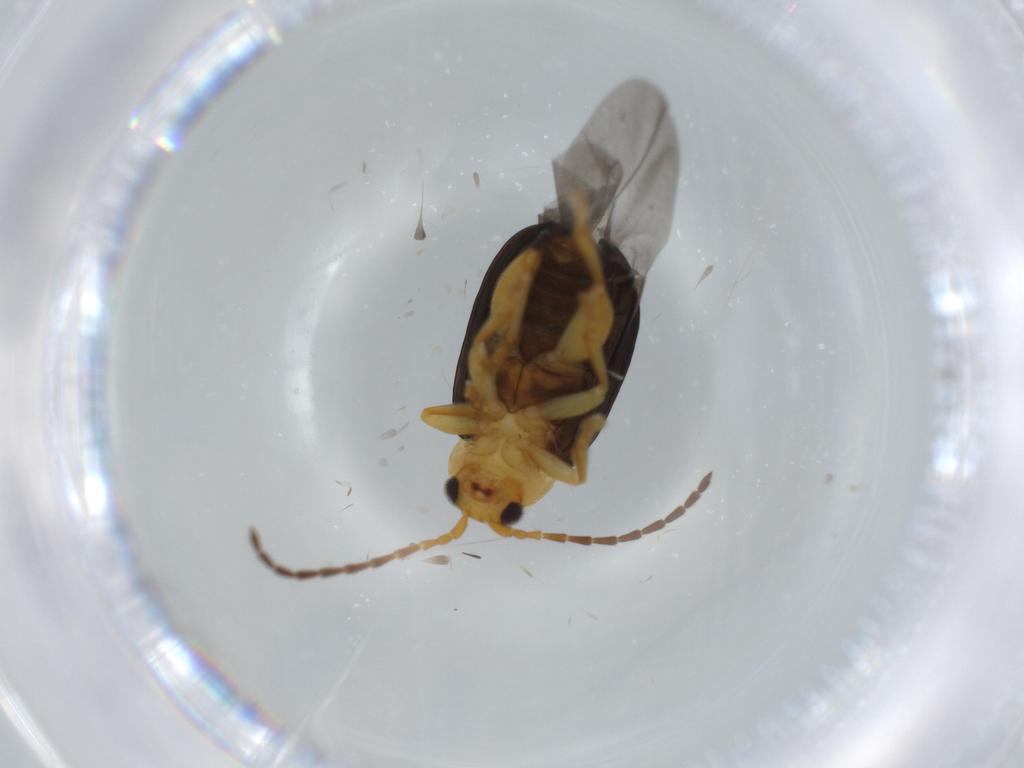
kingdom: Animalia
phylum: Arthropoda
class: Insecta
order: Coleoptera
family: Chrysomelidae
